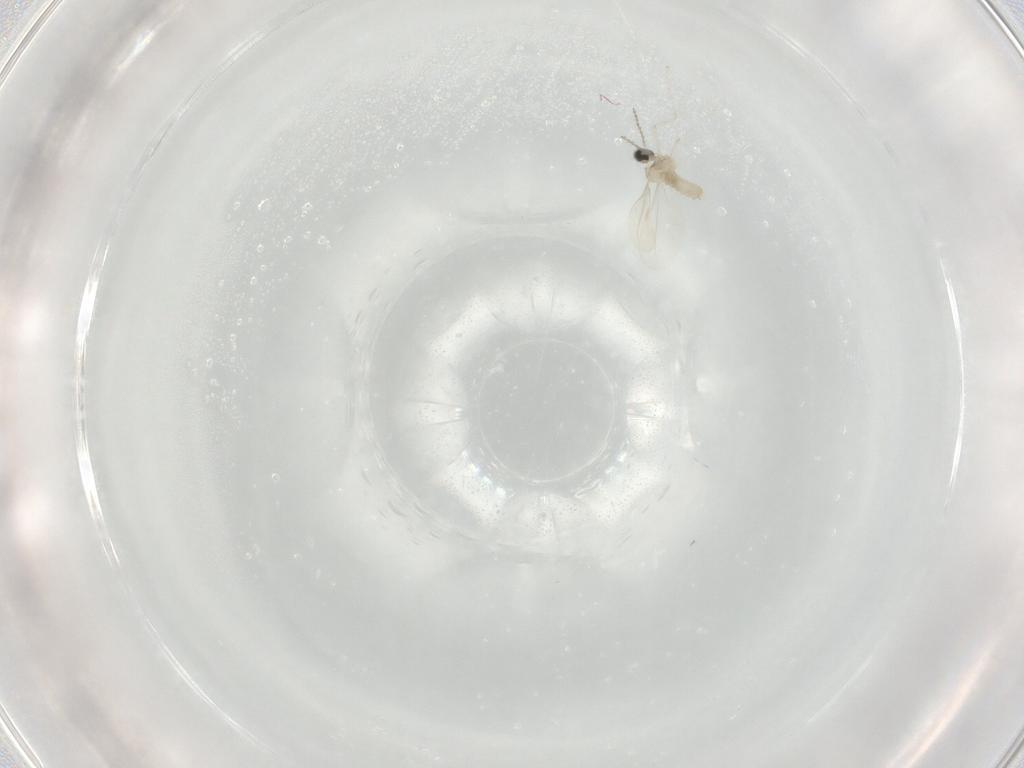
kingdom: Animalia
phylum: Arthropoda
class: Insecta
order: Diptera
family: Cecidomyiidae
